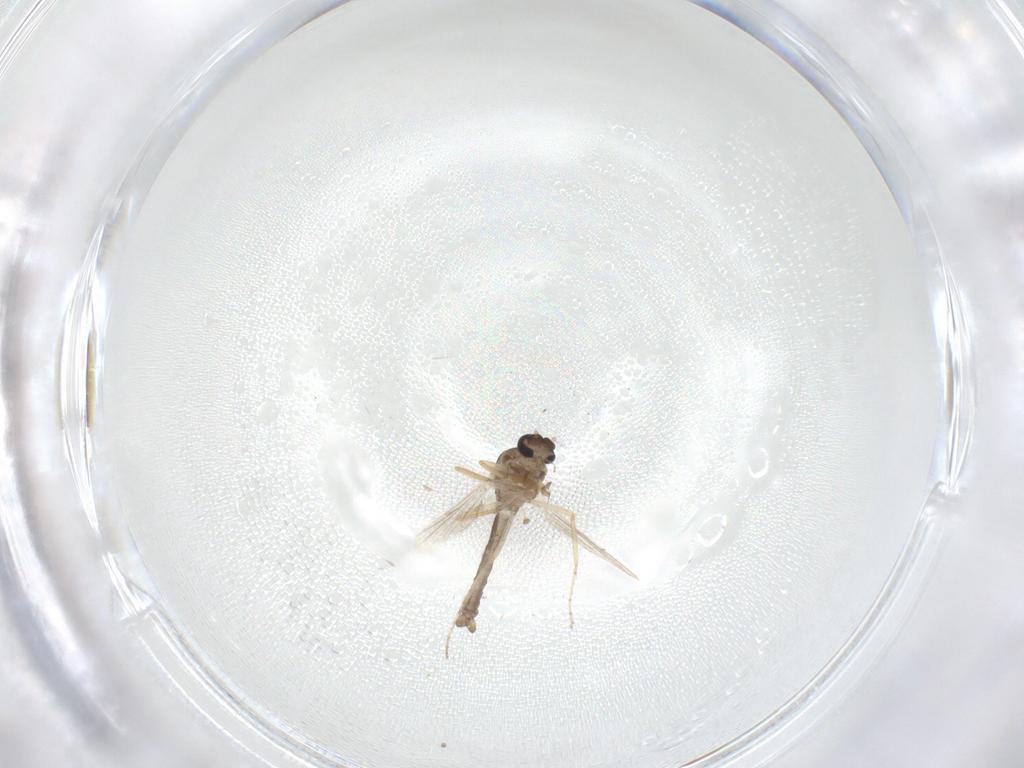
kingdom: Animalia
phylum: Arthropoda
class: Insecta
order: Diptera
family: Ceratopogonidae
